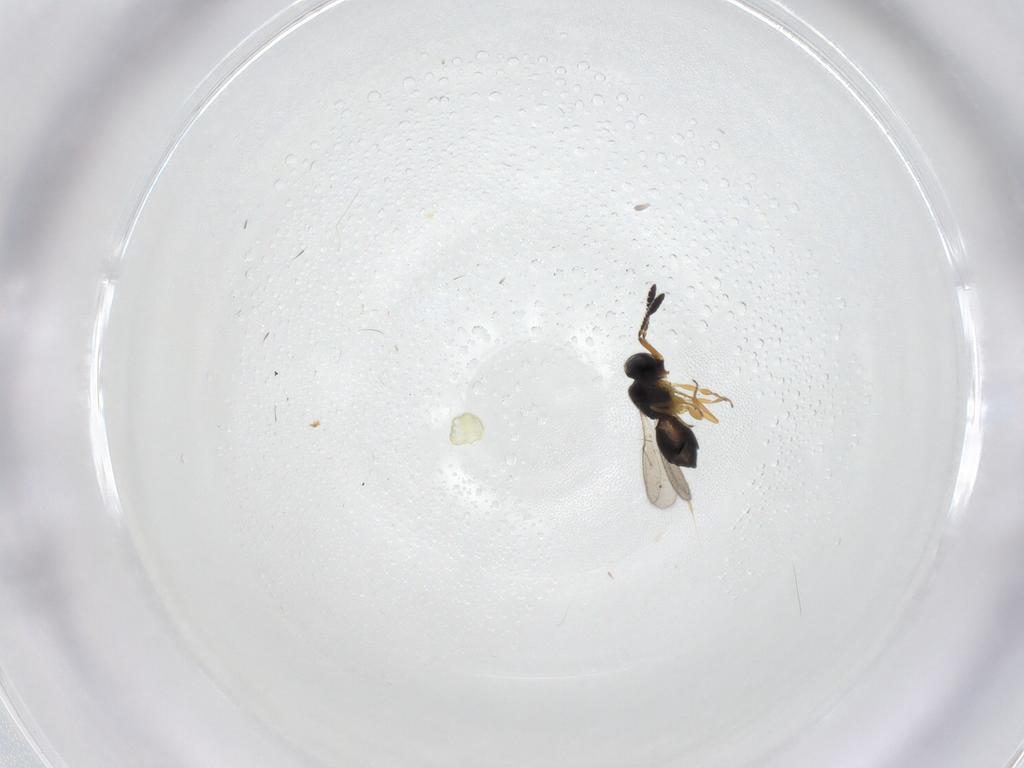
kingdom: Animalia
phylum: Arthropoda
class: Insecta
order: Hymenoptera
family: Scelionidae
